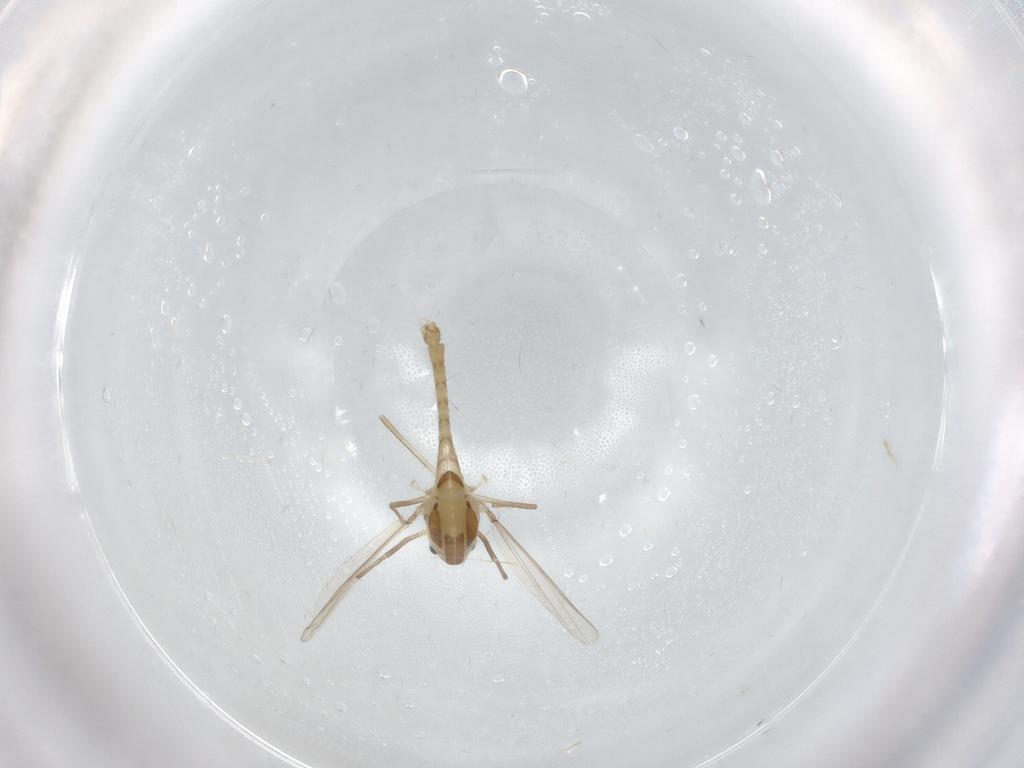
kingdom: Animalia
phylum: Arthropoda
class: Insecta
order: Diptera
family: Chironomidae
